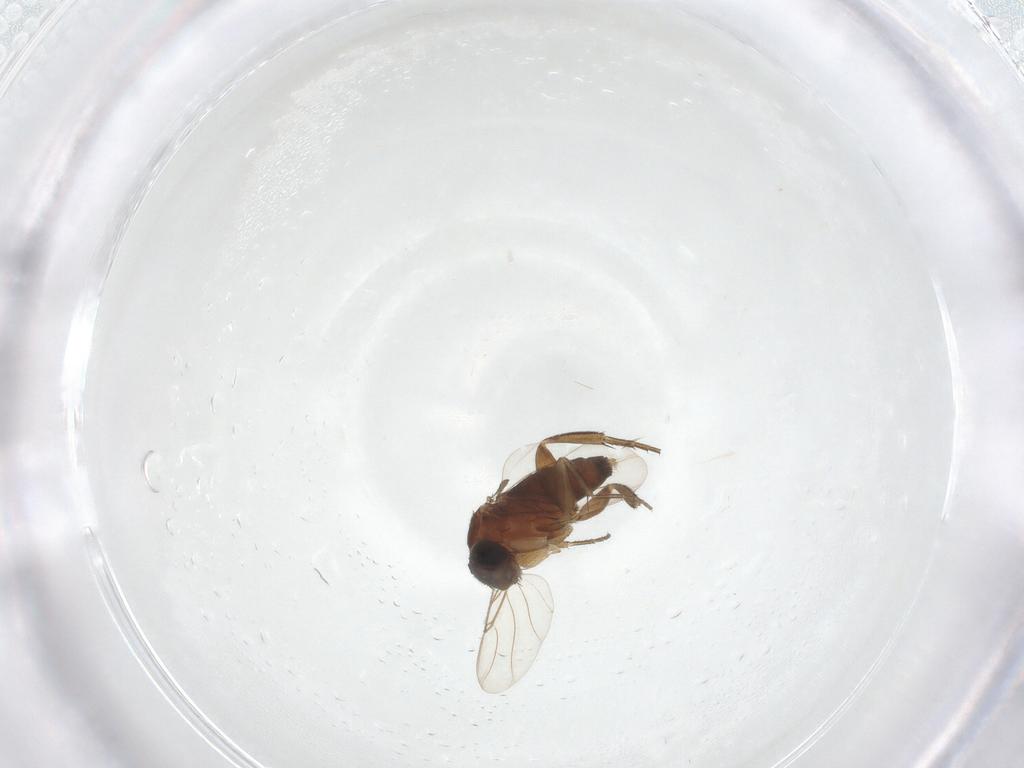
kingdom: Animalia
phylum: Arthropoda
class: Insecta
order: Diptera
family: Phoridae
